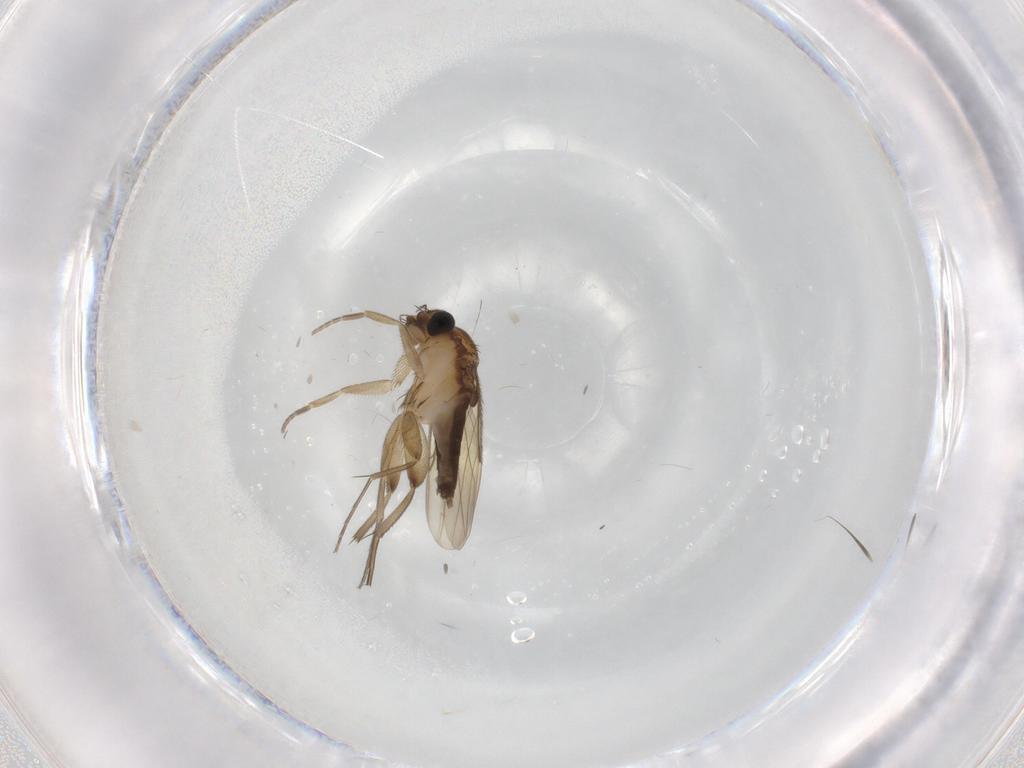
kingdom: Animalia
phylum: Arthropoda
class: Insecta
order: Diptera
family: Phoridae
